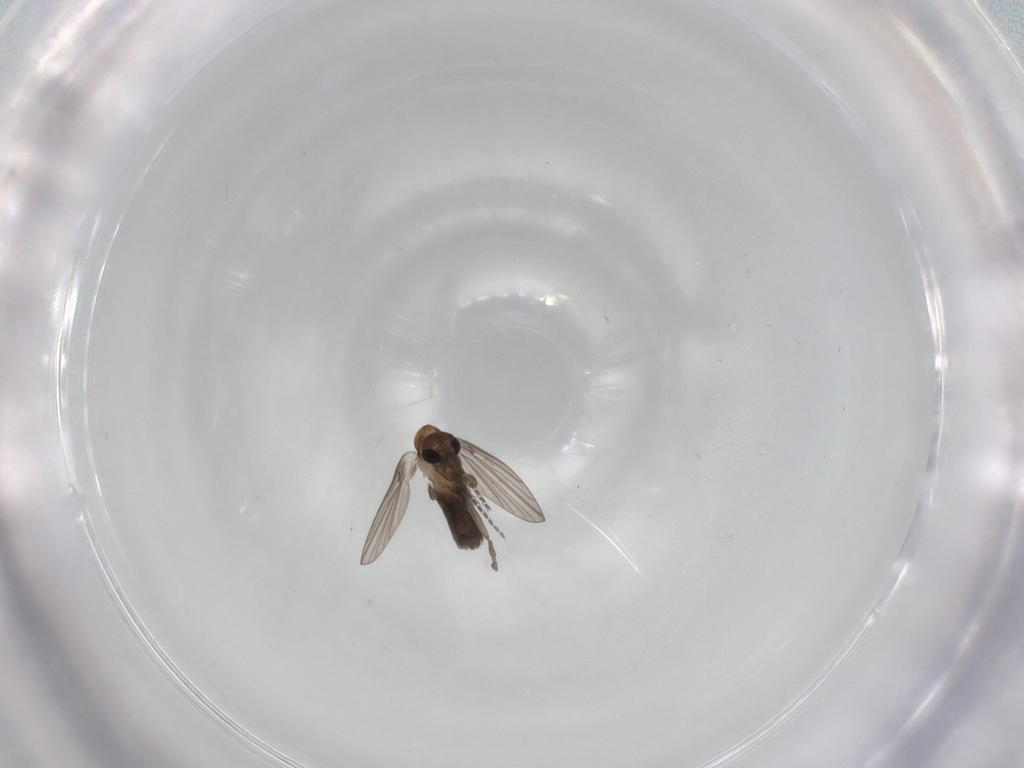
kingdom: Animalia
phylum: Arthropoda
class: Insecta
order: Diptera
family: Psychodidae
